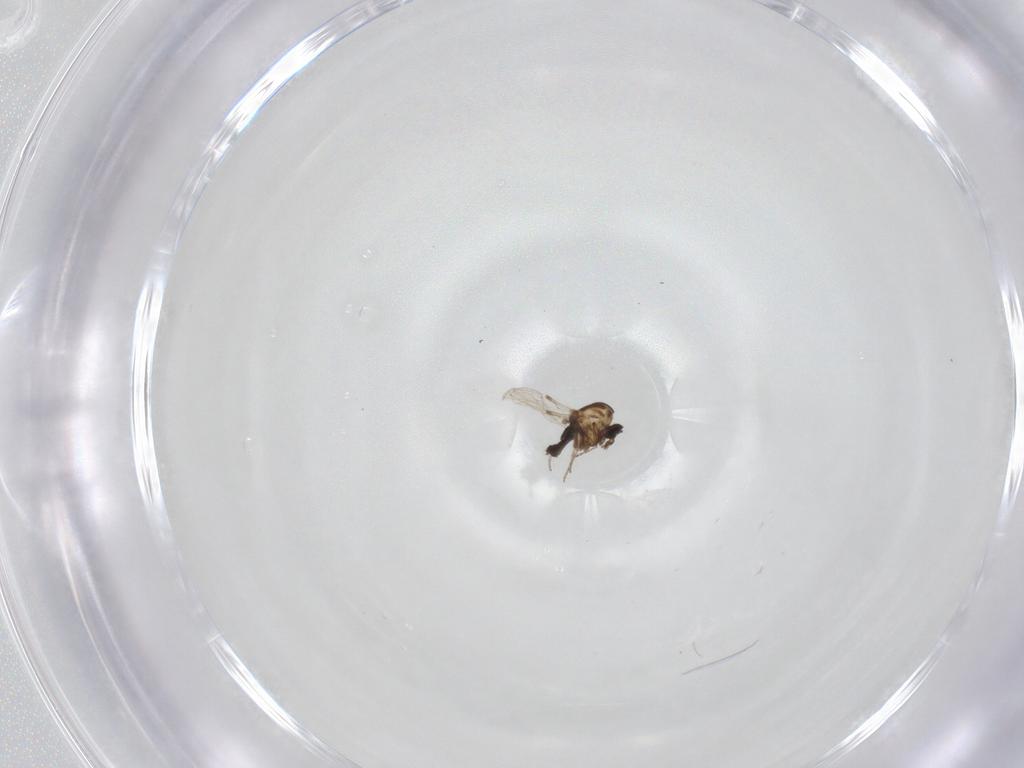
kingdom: Animalia
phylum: Arthropoda
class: Insecta
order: Diptera
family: Ceratopogonidae
